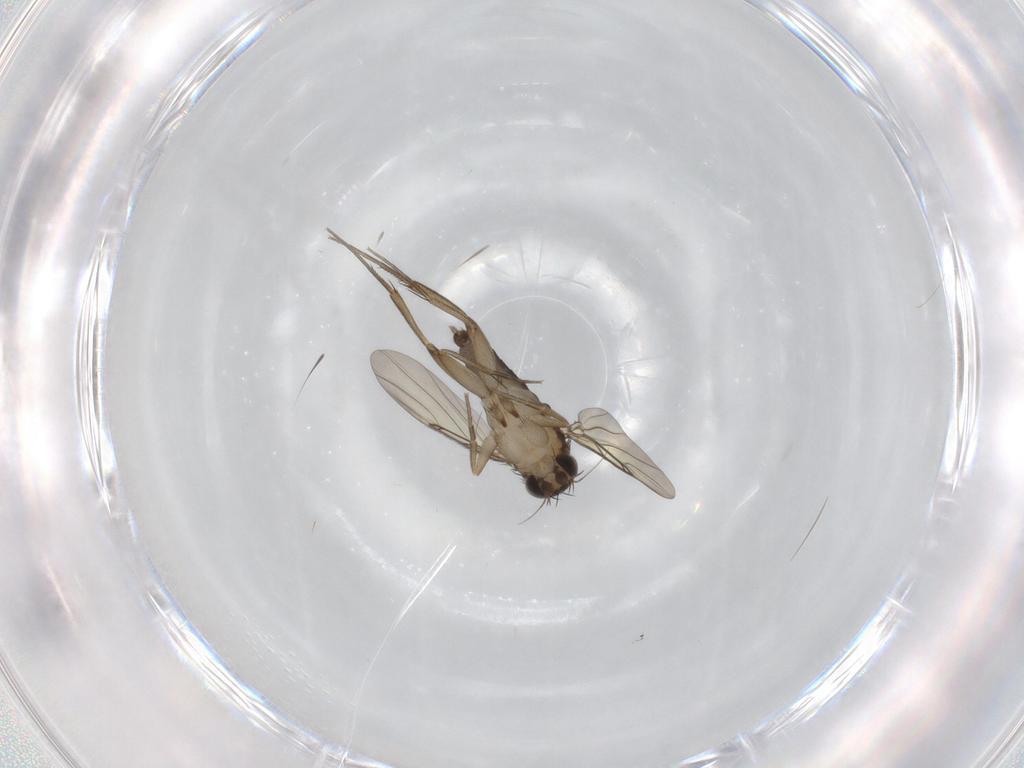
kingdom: Animalia
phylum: Arthropoda
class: Insecta
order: Diptera
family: Phoridae
